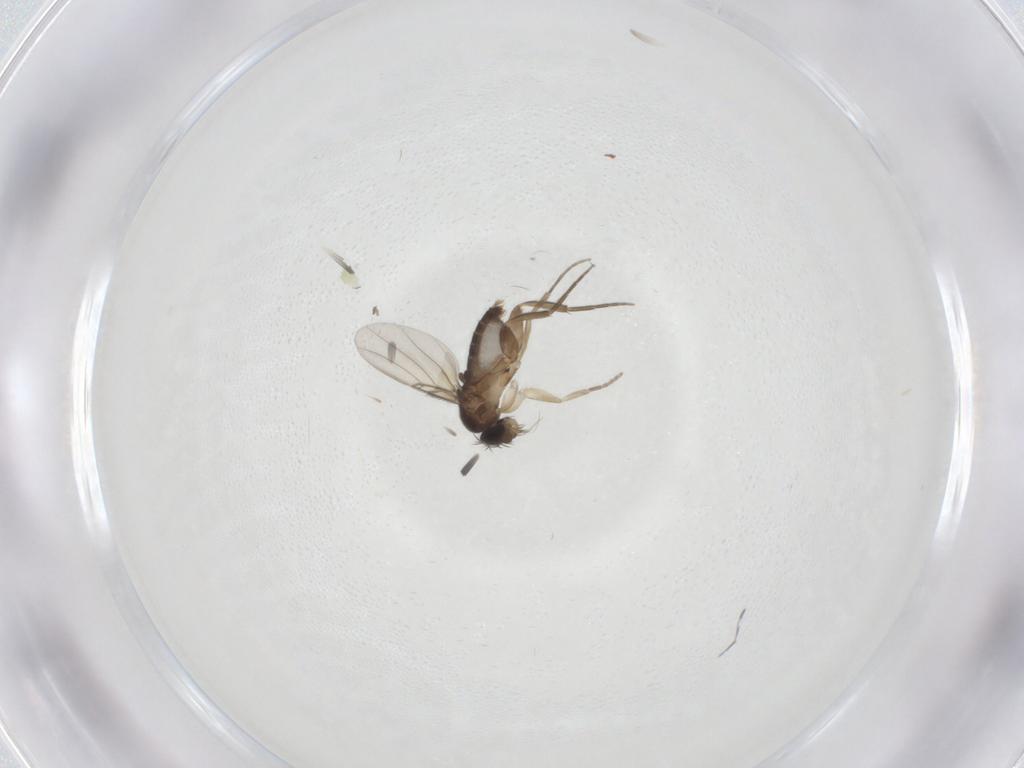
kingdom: Animalia
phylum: Arthropoda
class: Insecta
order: Diptera
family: Phoridae
